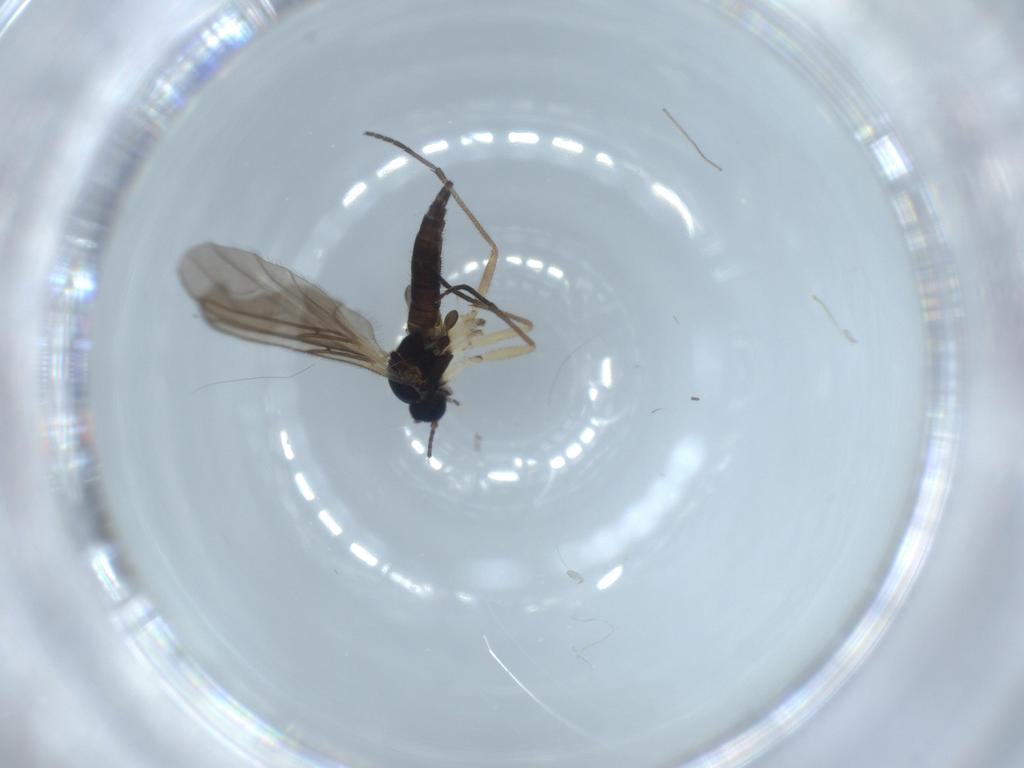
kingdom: Animalia
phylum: Arthropoda
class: Insecta
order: Diptera
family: Sciaridae
